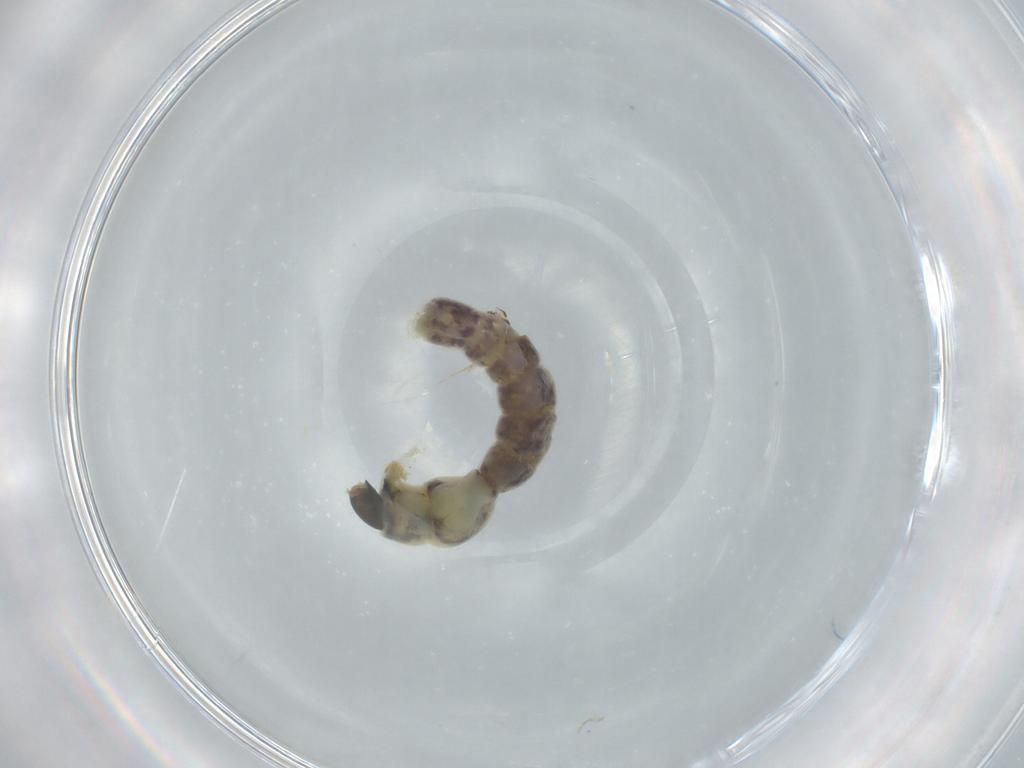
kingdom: Animalia
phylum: Arthropoda
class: Insecta
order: Diptera
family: Chironomidae
